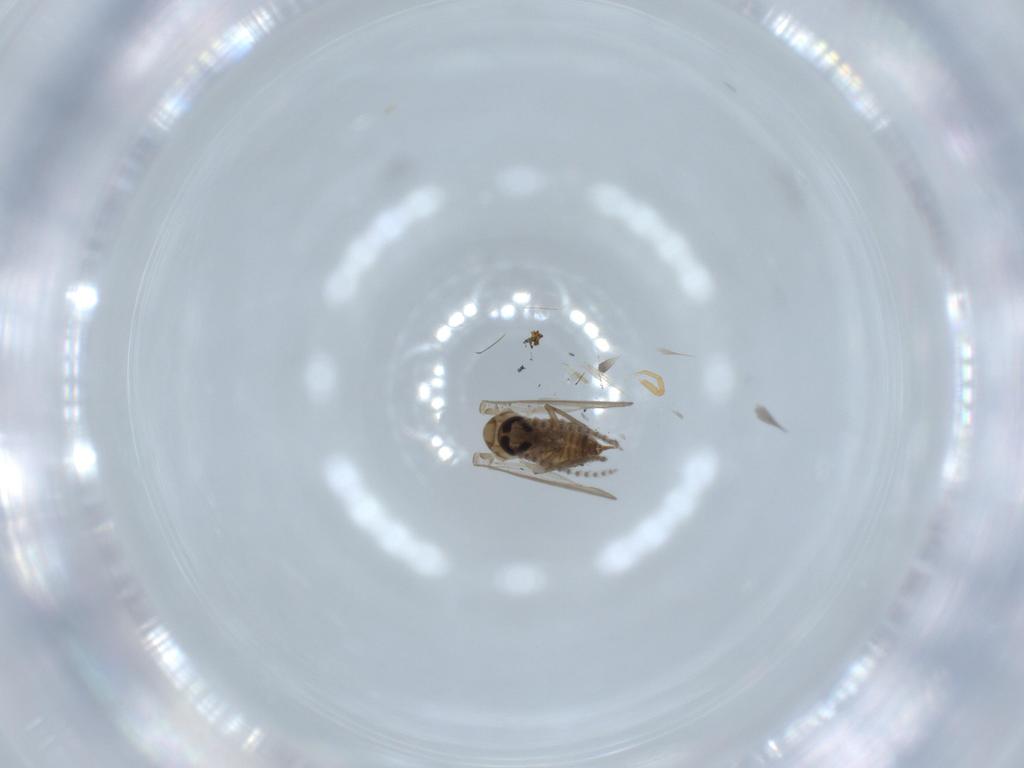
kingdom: Animalia
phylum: Arthropoda
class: Insecta
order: Diptera
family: Psychodidae
